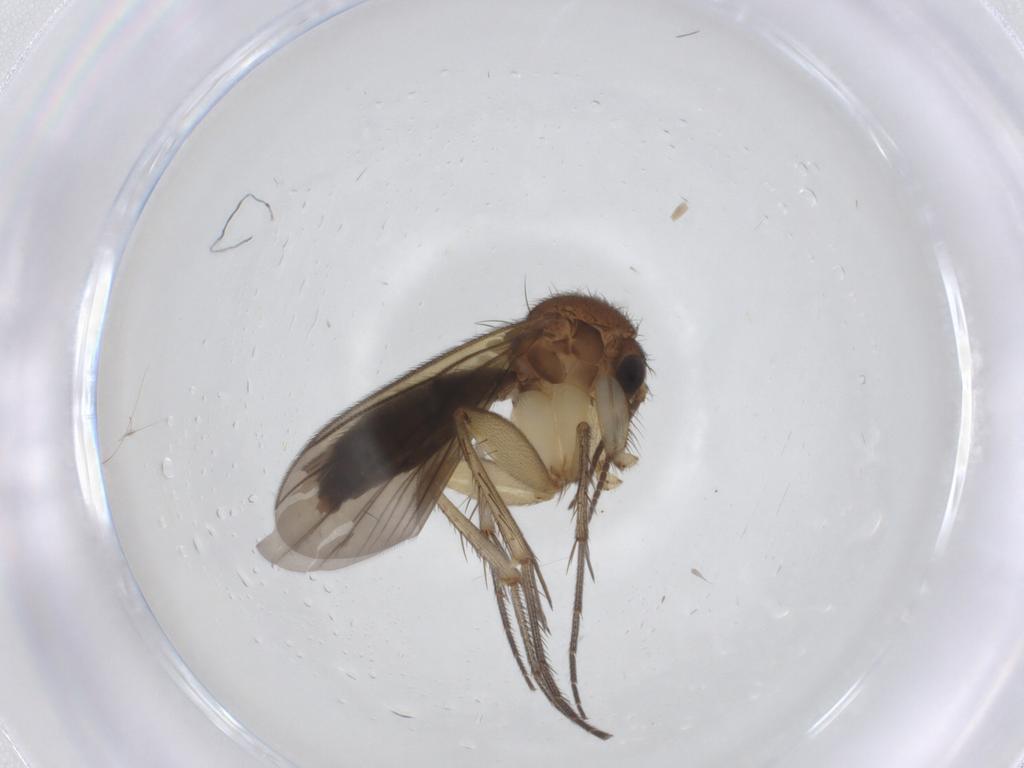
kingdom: Animalia
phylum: Arthropoda
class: Insecta
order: Diptera
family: Mycetophilidae
